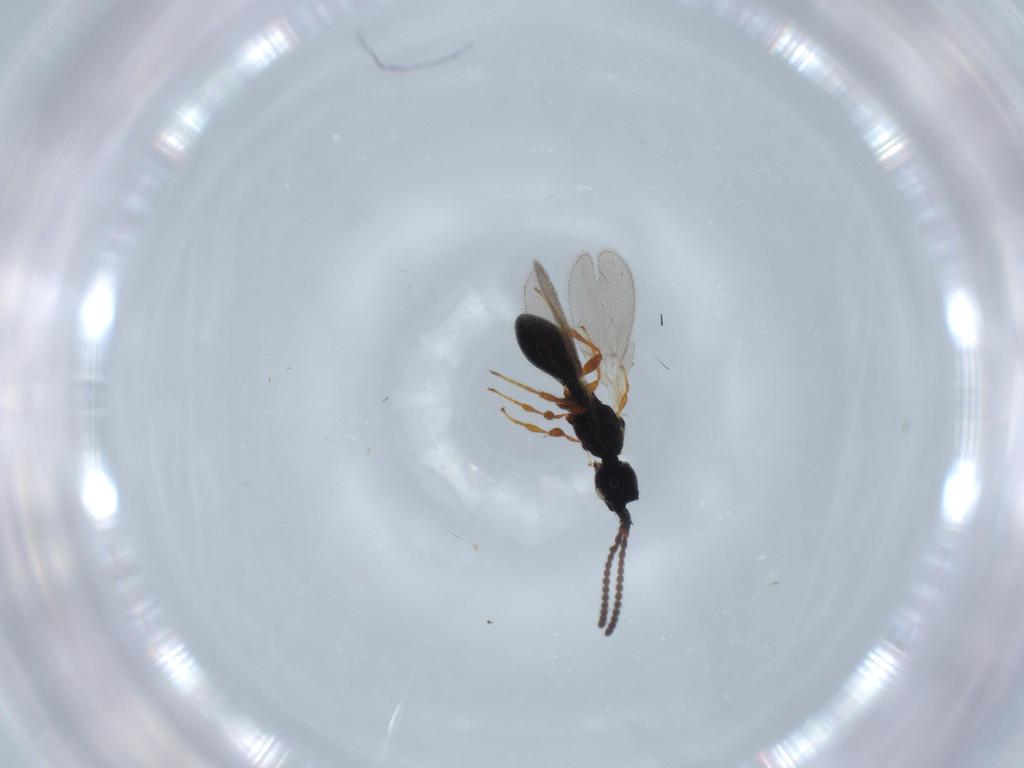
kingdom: Animalia
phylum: Arthropoda
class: Insecta
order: Hymenoptera
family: Diapriidae
